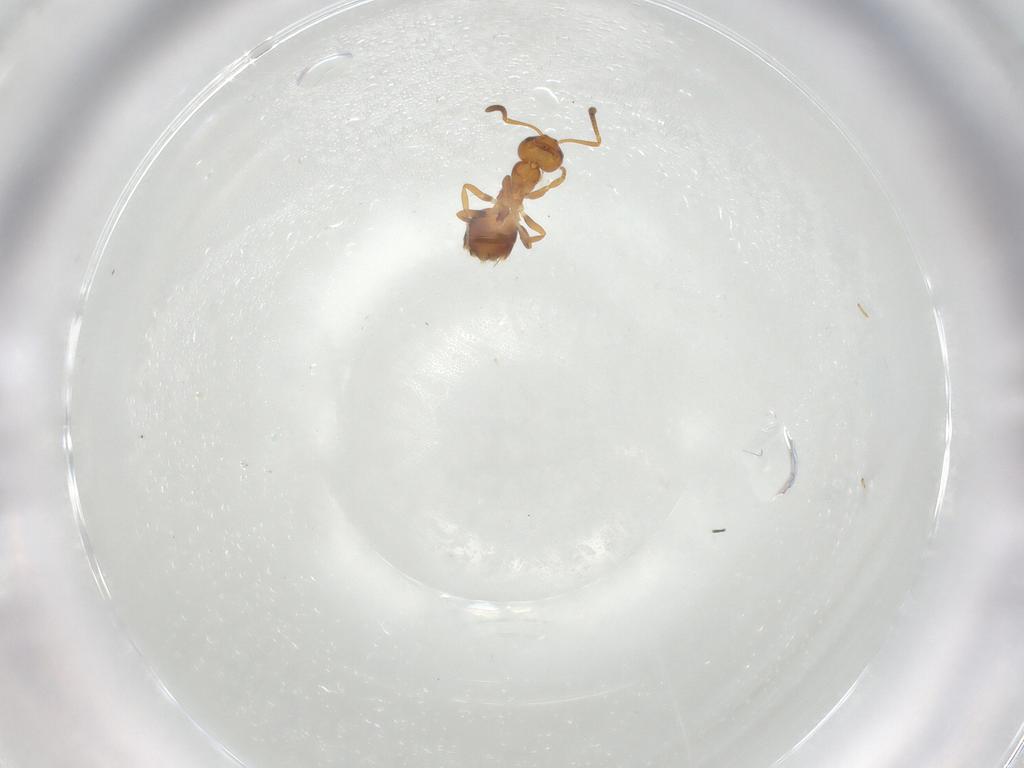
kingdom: Animalia
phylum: Arthropoda
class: Insecta
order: Hymenoptera
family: Formicidae
